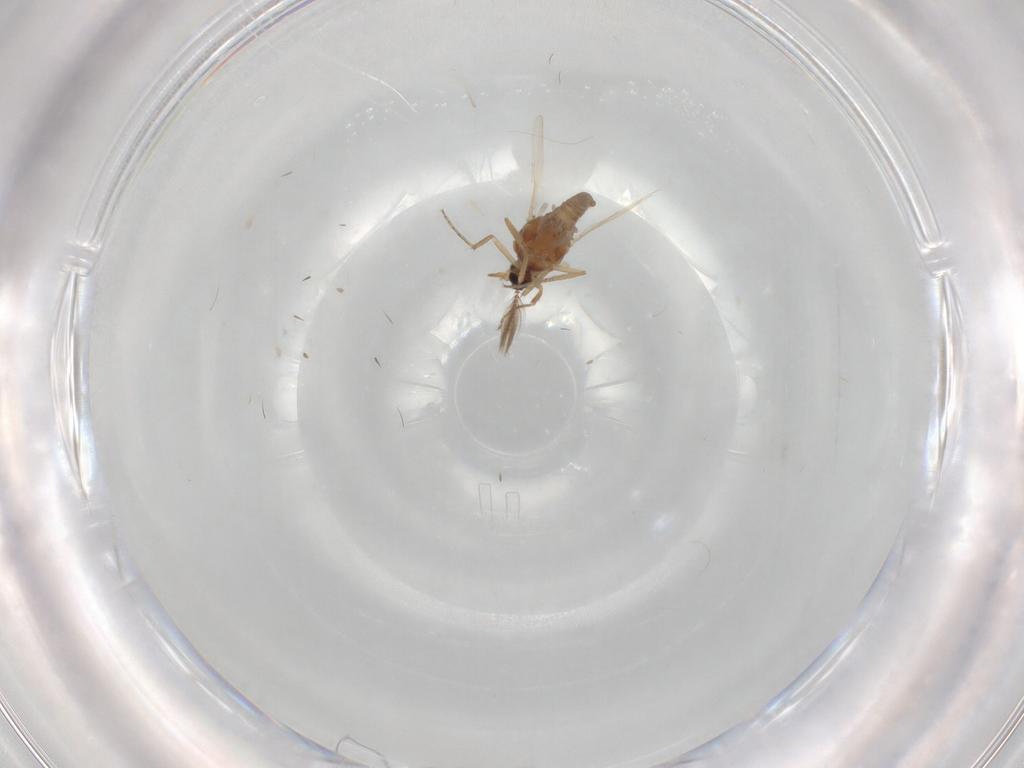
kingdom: Animalia
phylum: Arthropoda
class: Insecta
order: Diptera
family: Ceratopogonidae
